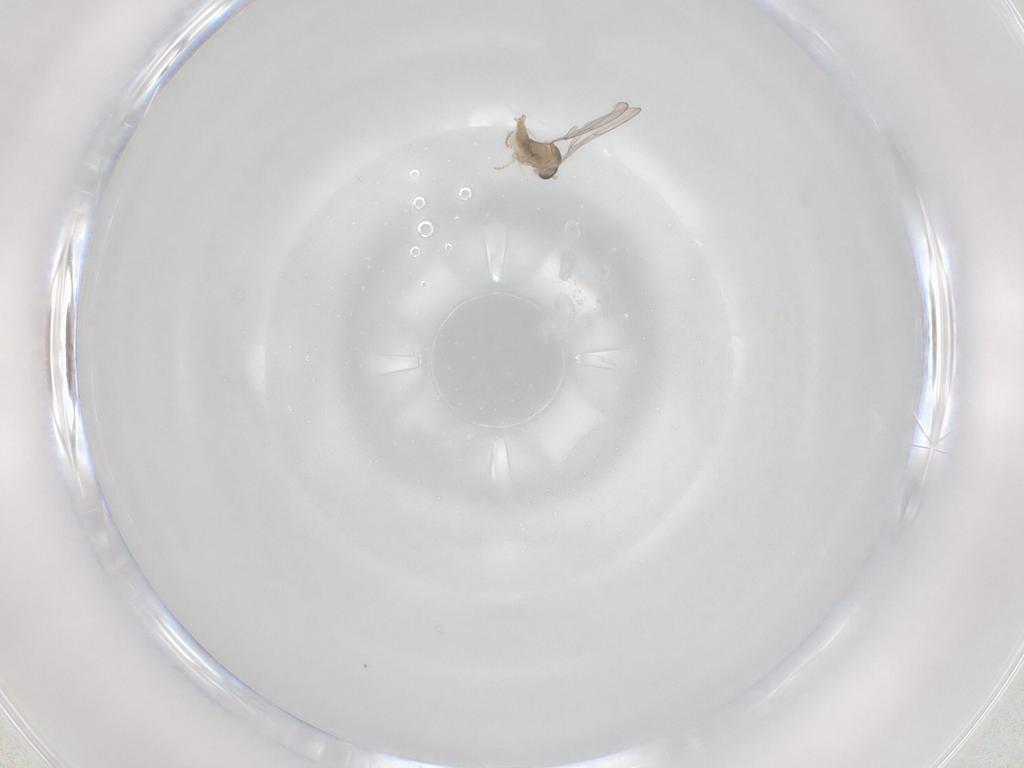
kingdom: Animalia
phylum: Arthropoda
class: Insecta
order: Diptera
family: Cecidomyiidae
